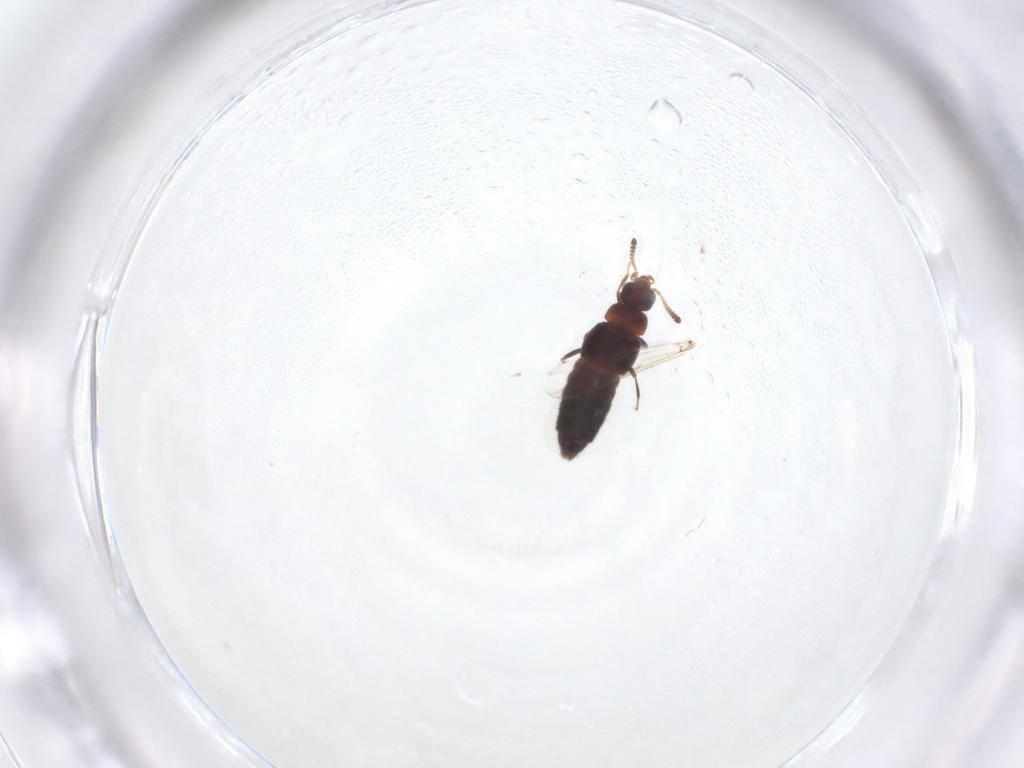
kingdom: Animalia
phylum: Arthropoda
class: Insecta
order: Coleoptera
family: Staphylinidae
